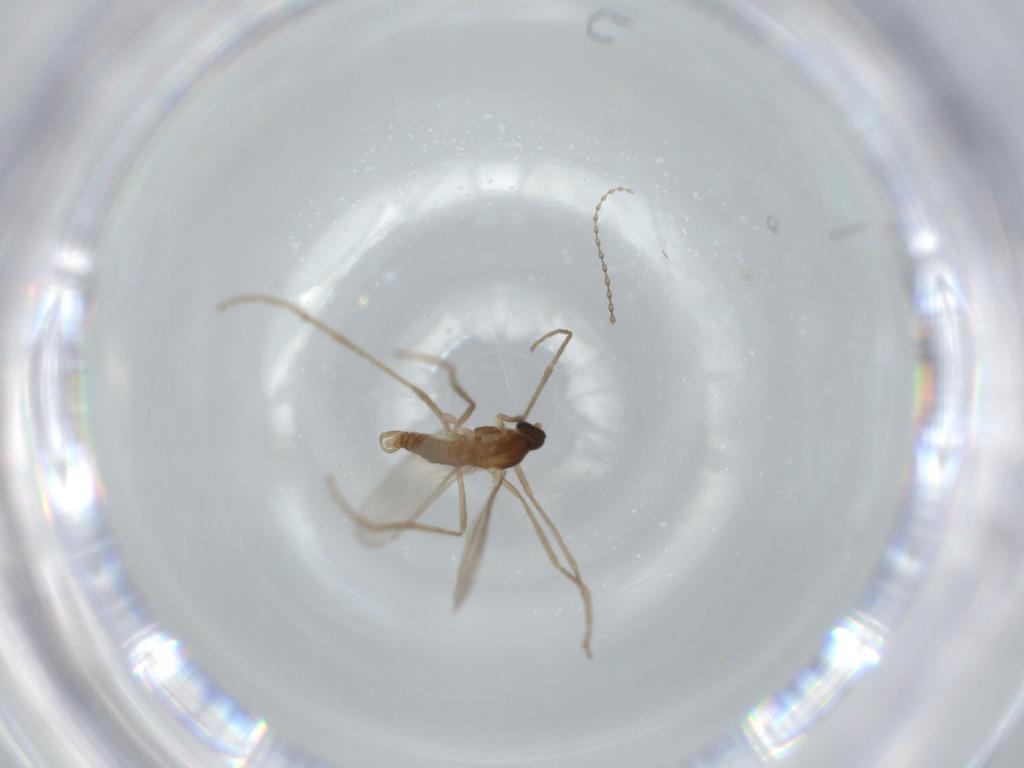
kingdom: Animalia
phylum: Arthropoda
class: Insecta
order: Diptera
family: Cecidomyiidae
